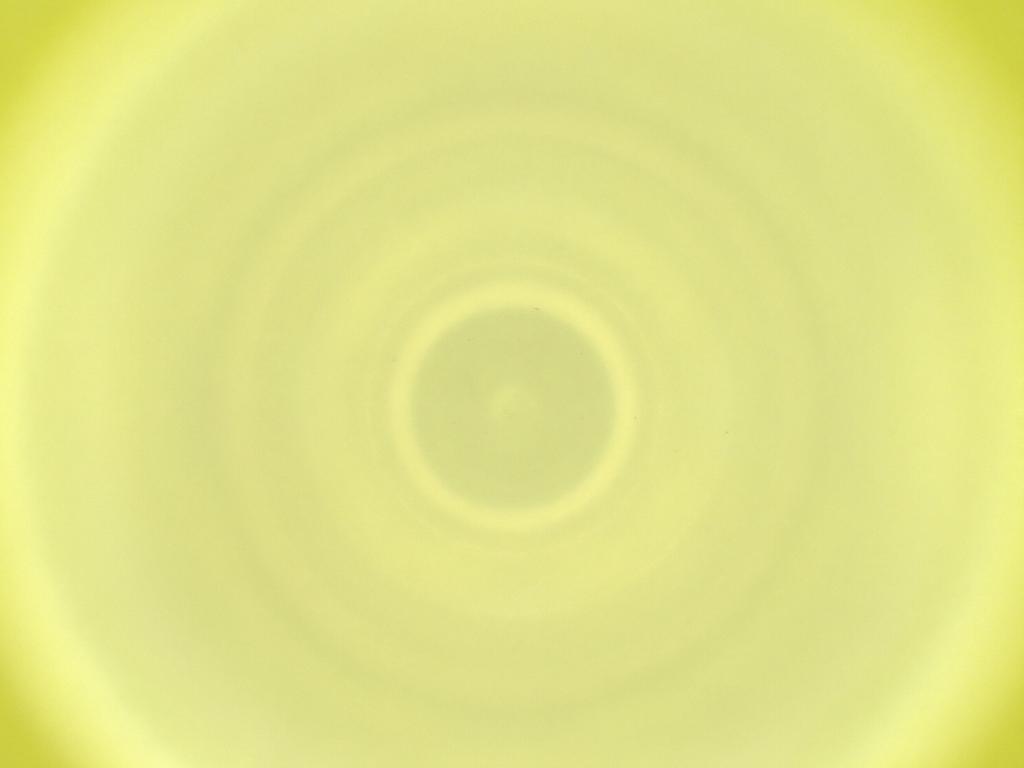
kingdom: Animalia
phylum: Arthropoda
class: Insecta
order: Diptera
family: Cecidomyiidae
